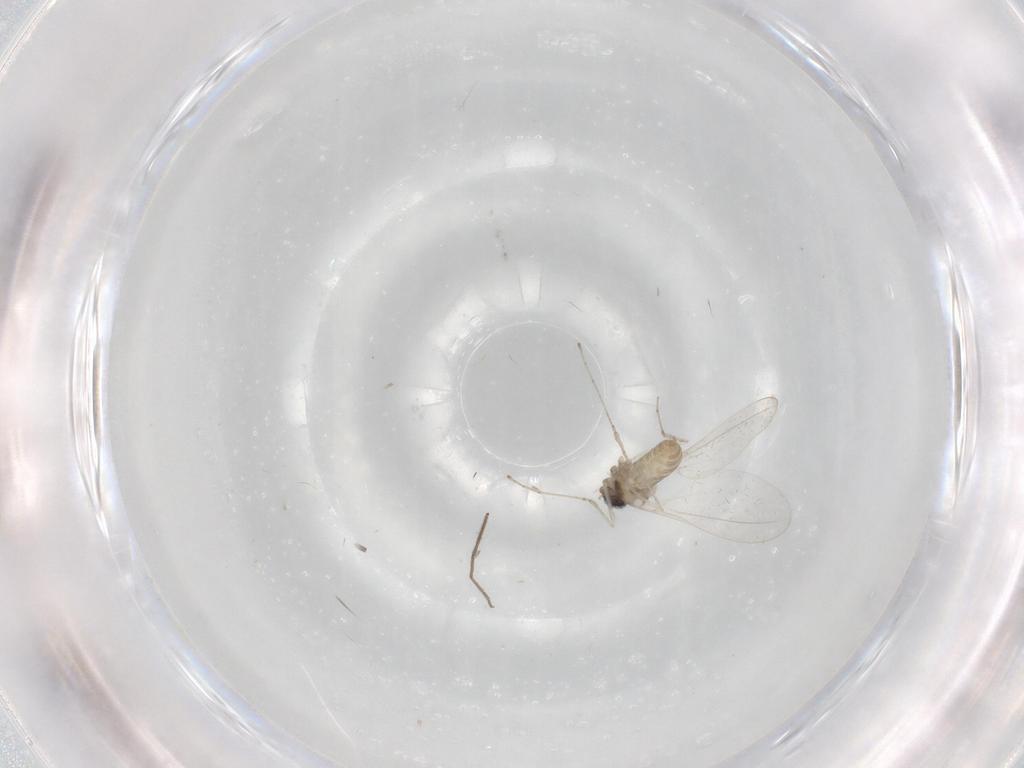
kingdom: Animalia
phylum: Arthropoda
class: Insecta
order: Diptera
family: Cecidomyiidae
